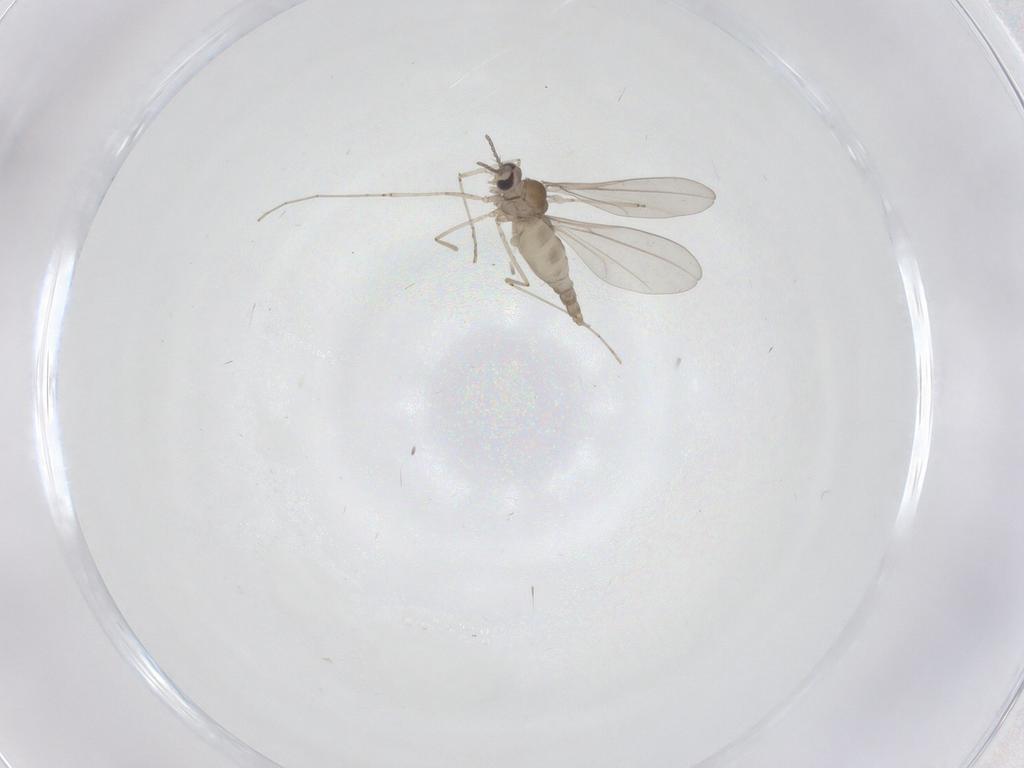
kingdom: Animalia
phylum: Arthropoda
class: Insecta
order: Diptera
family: Cecidomyiidae
